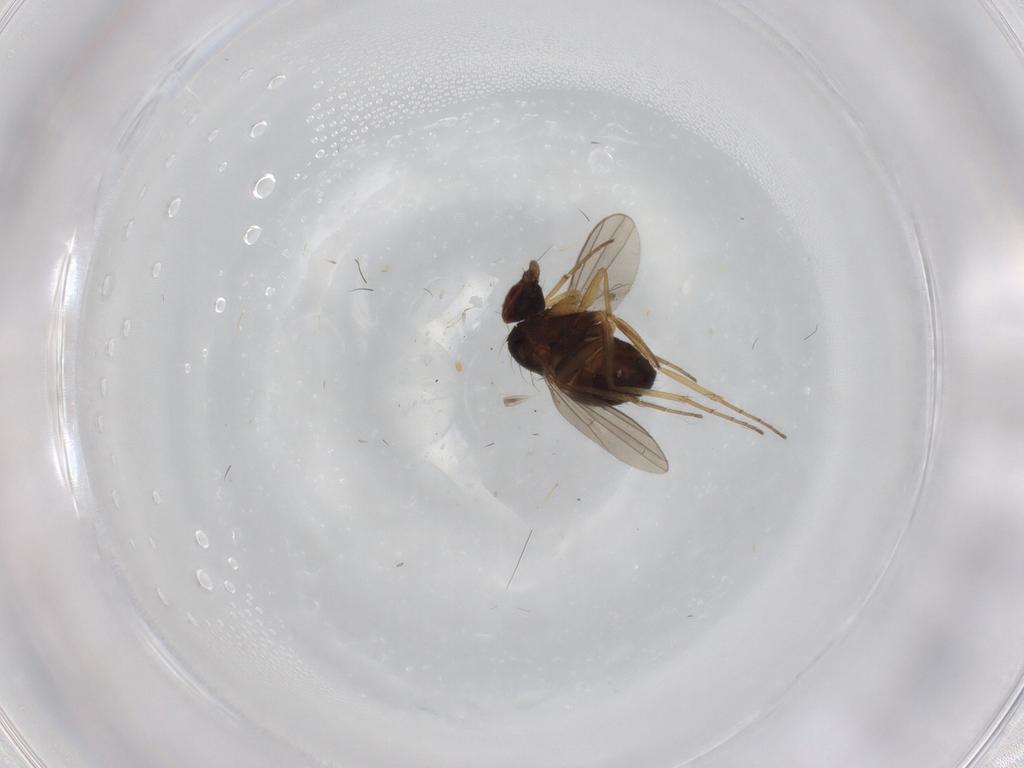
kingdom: Animalia
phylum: Arthropoda
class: Insecta
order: Diptera
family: Dolichopodidae
